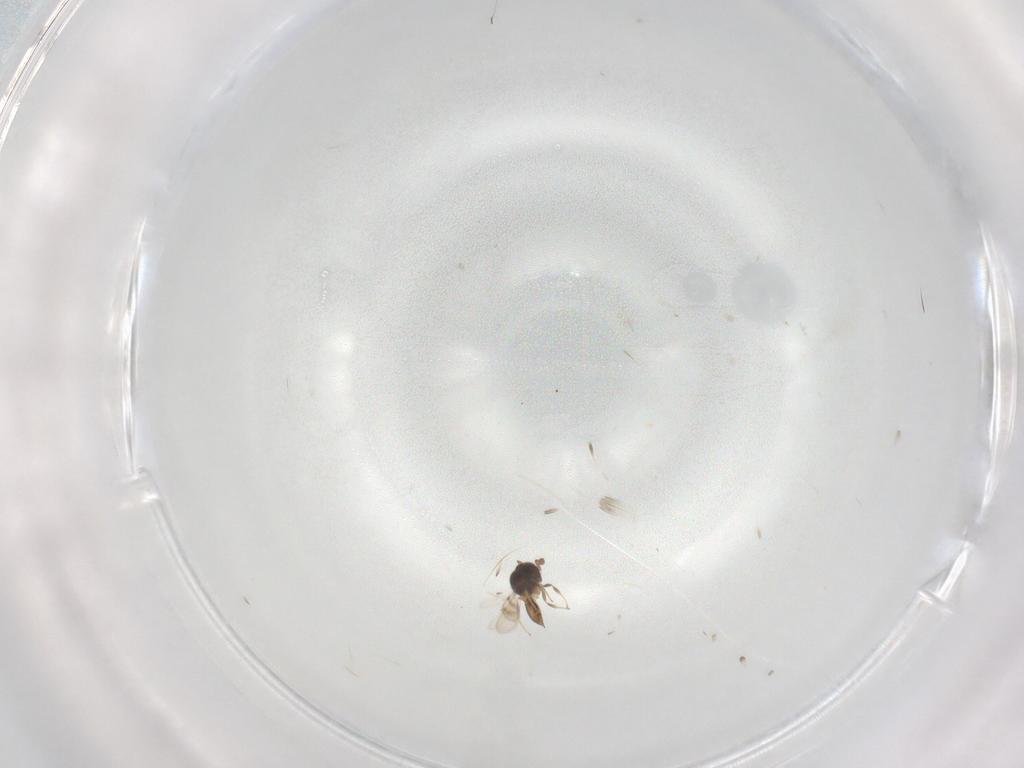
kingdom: Animalia
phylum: Arthropoda
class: Insecta
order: Hymenoptera
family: Scelionidae
